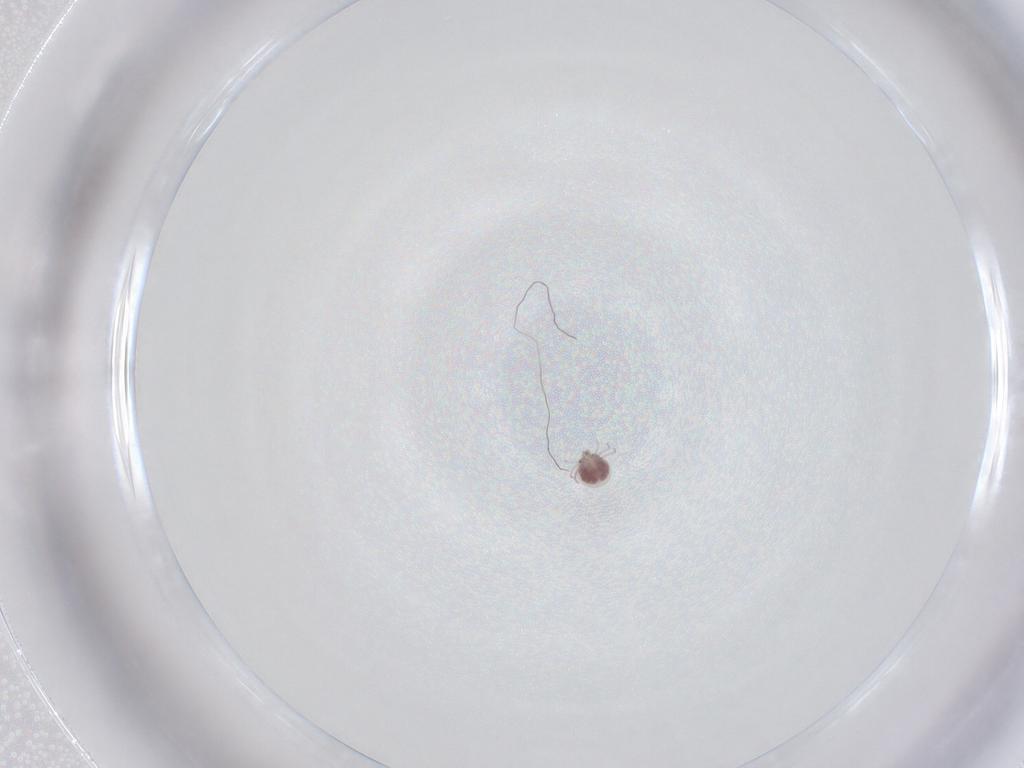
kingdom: Animalia
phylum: Arthropoda
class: Arachnida
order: Trombidiformes
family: Pionidae
